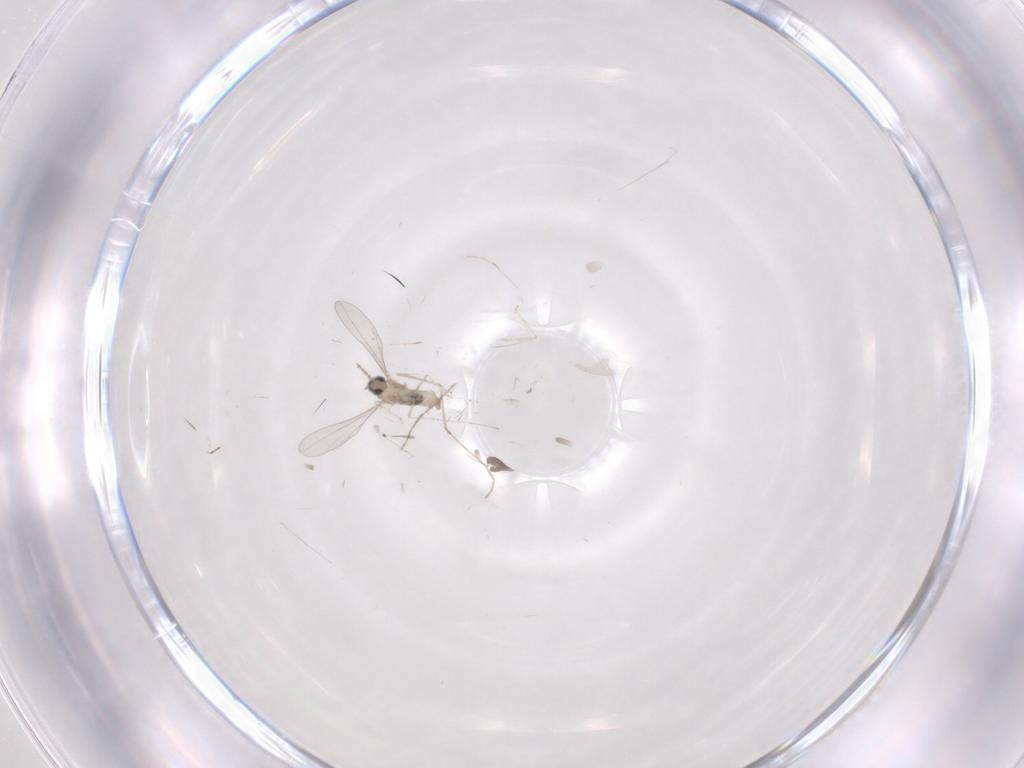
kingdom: Animalia
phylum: Arthropoda
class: Insecta
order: Diptera
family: Cecidomyiidae
